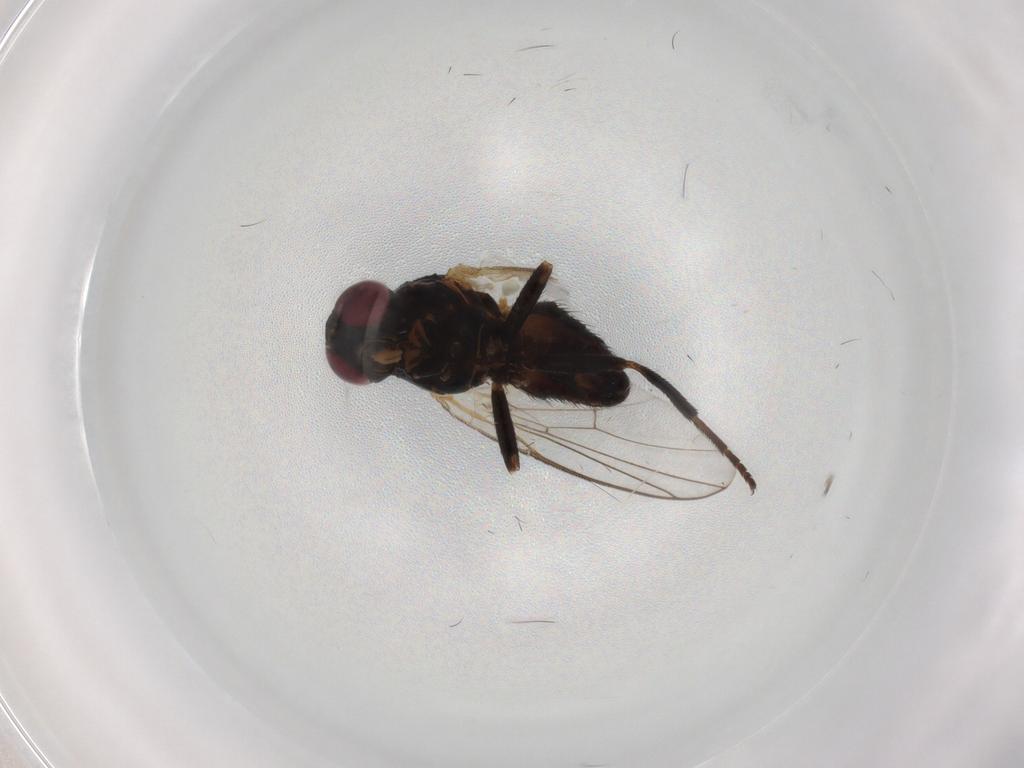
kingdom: Animalia
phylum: Arthropoda
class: Insecta
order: Diptera
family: Agromyzidae
